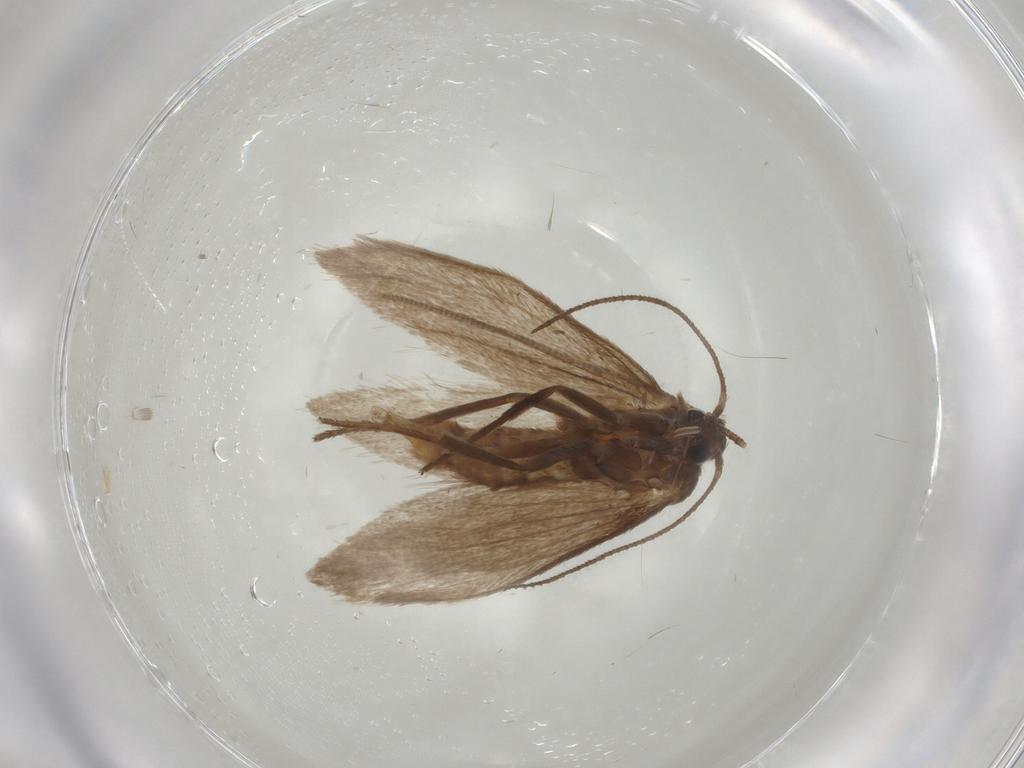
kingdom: Animalia
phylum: Arthropoda
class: Insecta
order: Lepidoptera
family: Limacodidae
